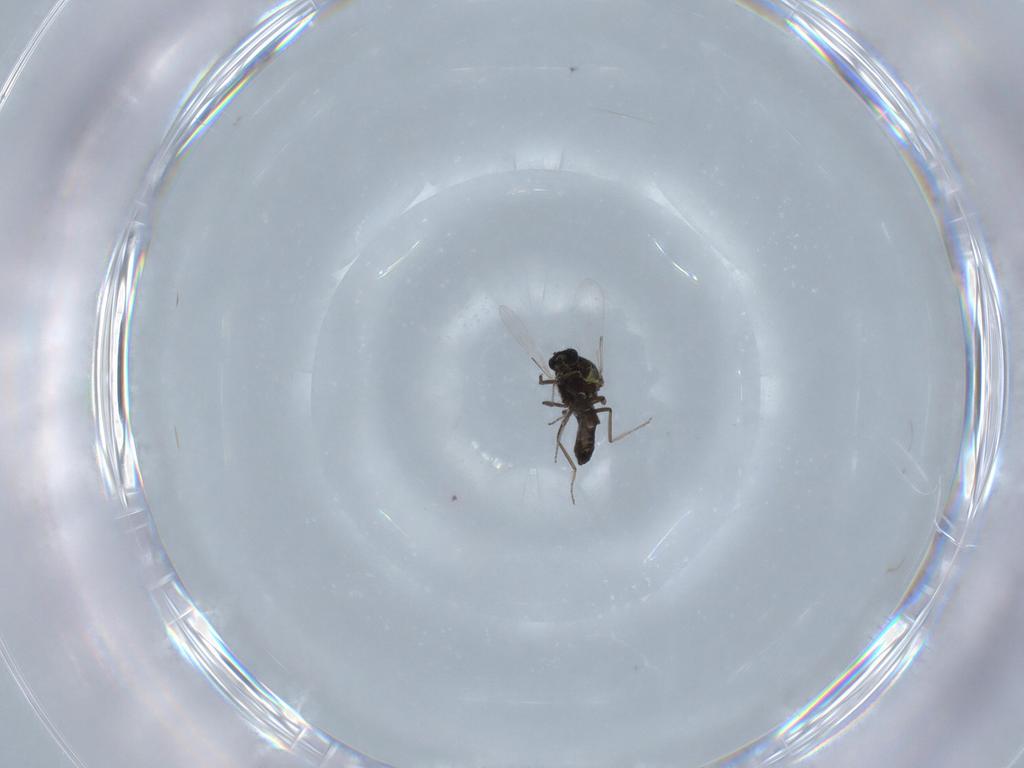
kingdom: Animalia
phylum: Arthropoda
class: Insecta
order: Diptera
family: Ceratopogonidae
